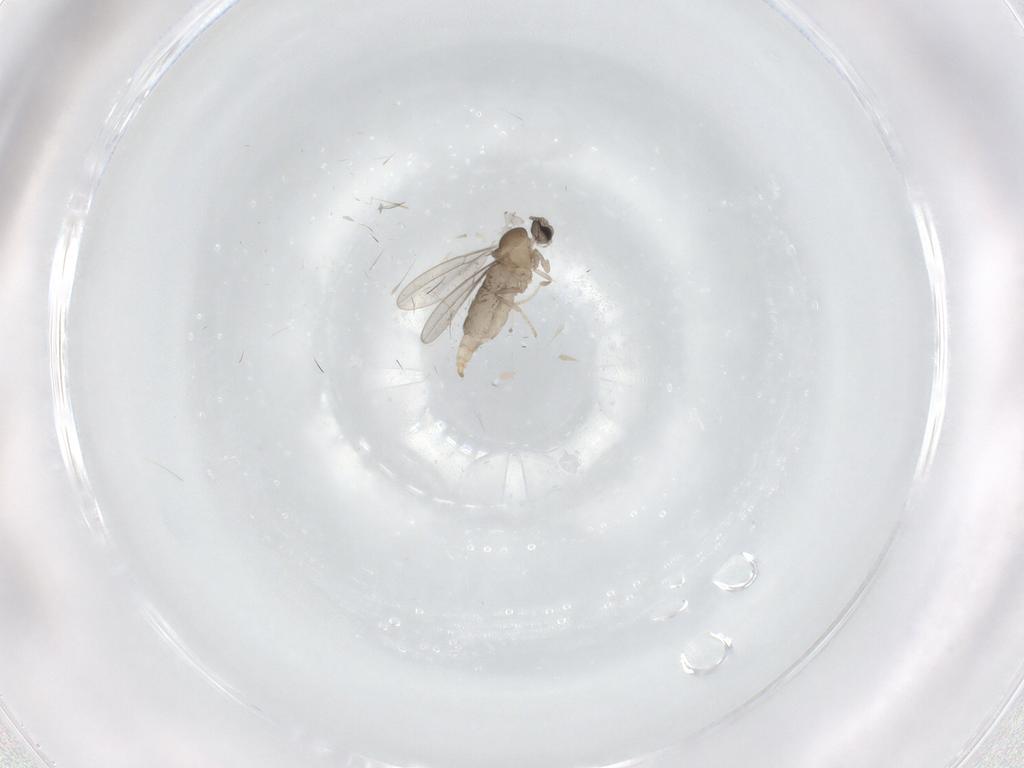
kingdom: Animalia
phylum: Arthropoda
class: Insecta
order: Diptera
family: Cecidomyiidae
